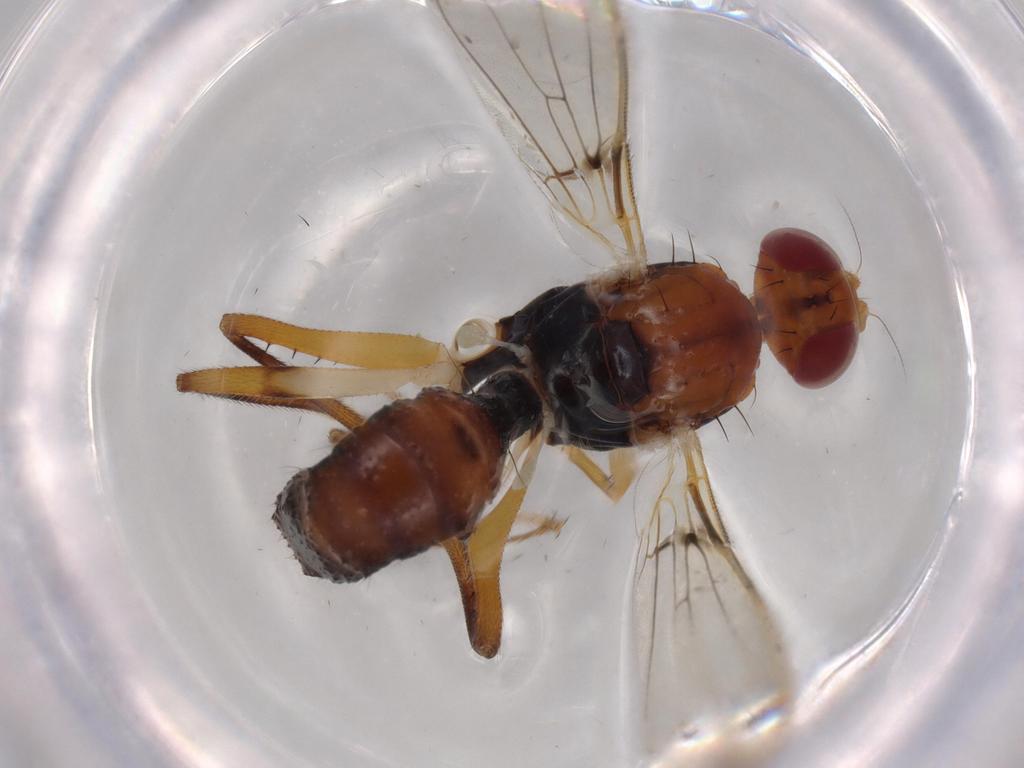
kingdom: Animalia
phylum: Arthropoda
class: Insecta
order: Diptera
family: Richardiidae
